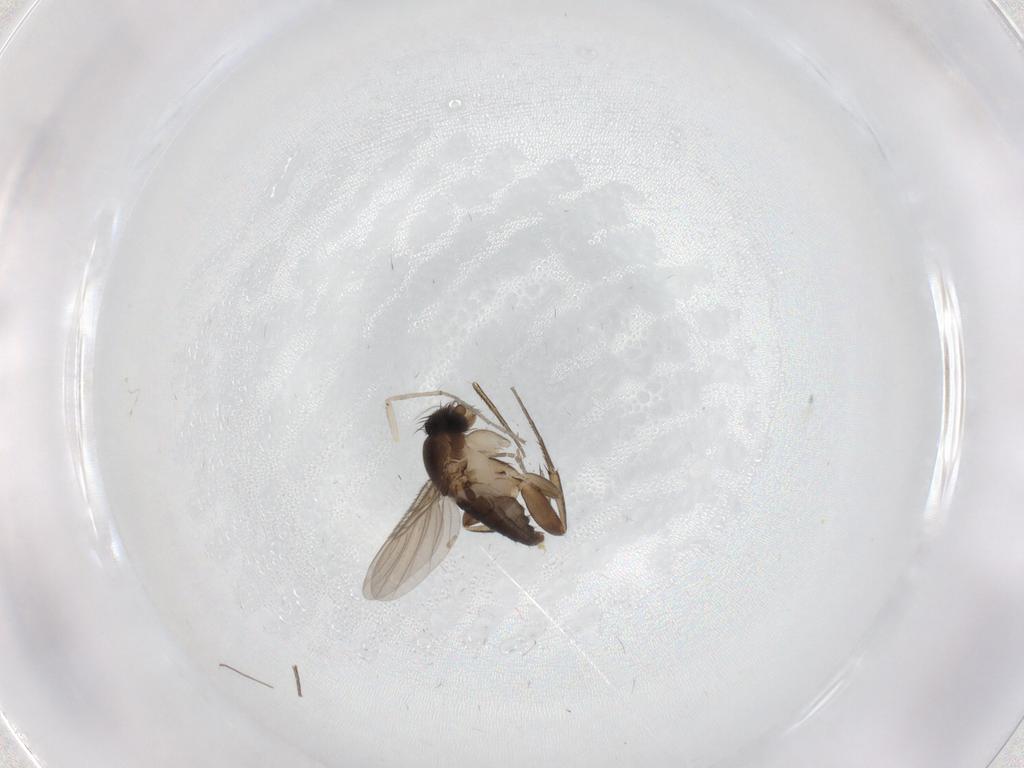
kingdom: Animalia
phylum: Arthropoda
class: Insecta
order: Diptera
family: Phoridae
